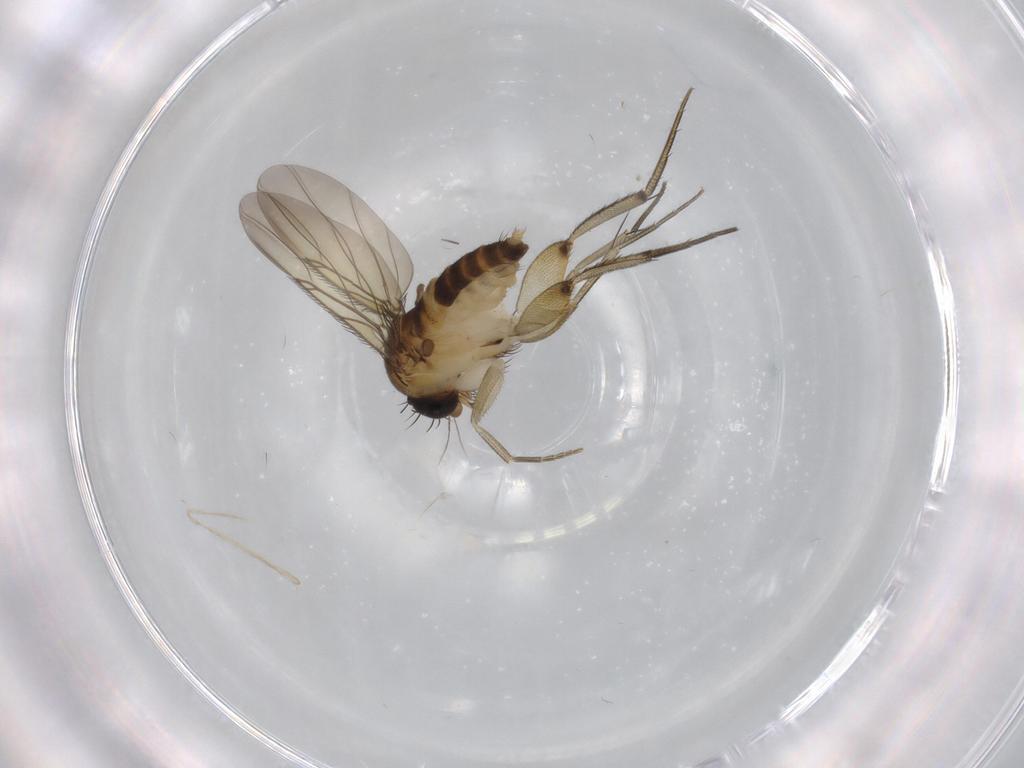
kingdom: Animalia
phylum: Arthropoda
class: Insecta
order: Diptera
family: Phoridae
